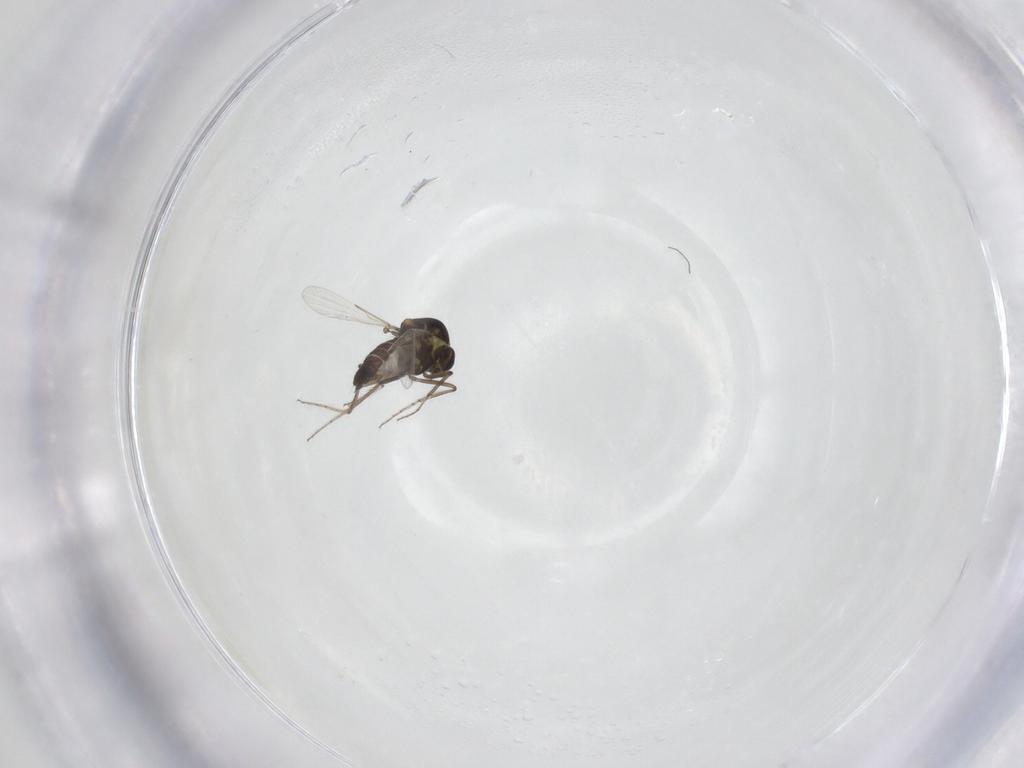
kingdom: Animalia
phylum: Arthropoda
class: Insecta
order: Diptera
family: Ceratopogonidae
